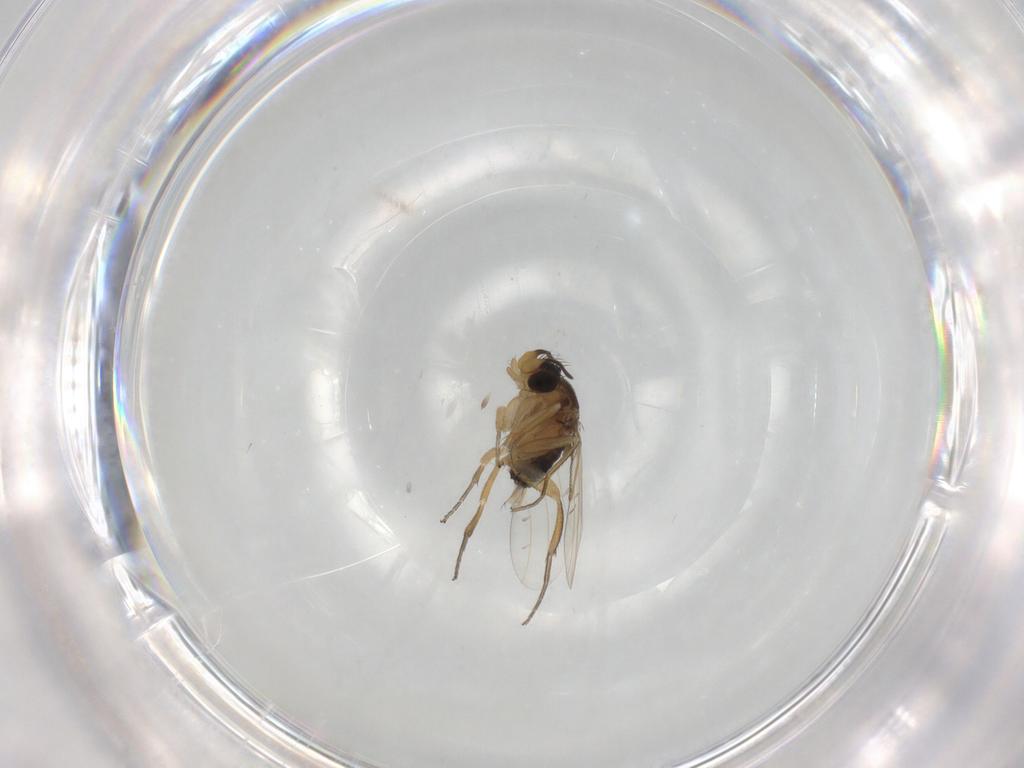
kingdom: Animalia
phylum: Arthropoda
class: Insecta
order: Diptera
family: Phoridae
